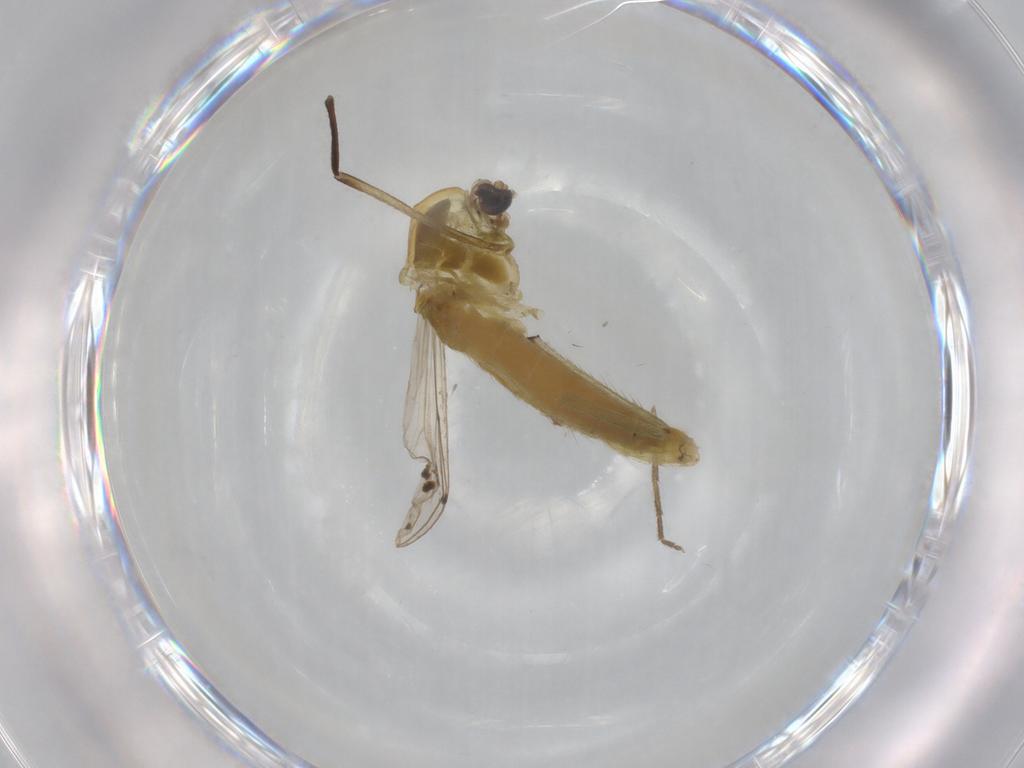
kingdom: Animalia
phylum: Arthropoda
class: Insecta
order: Diptera
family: Chironomidae
